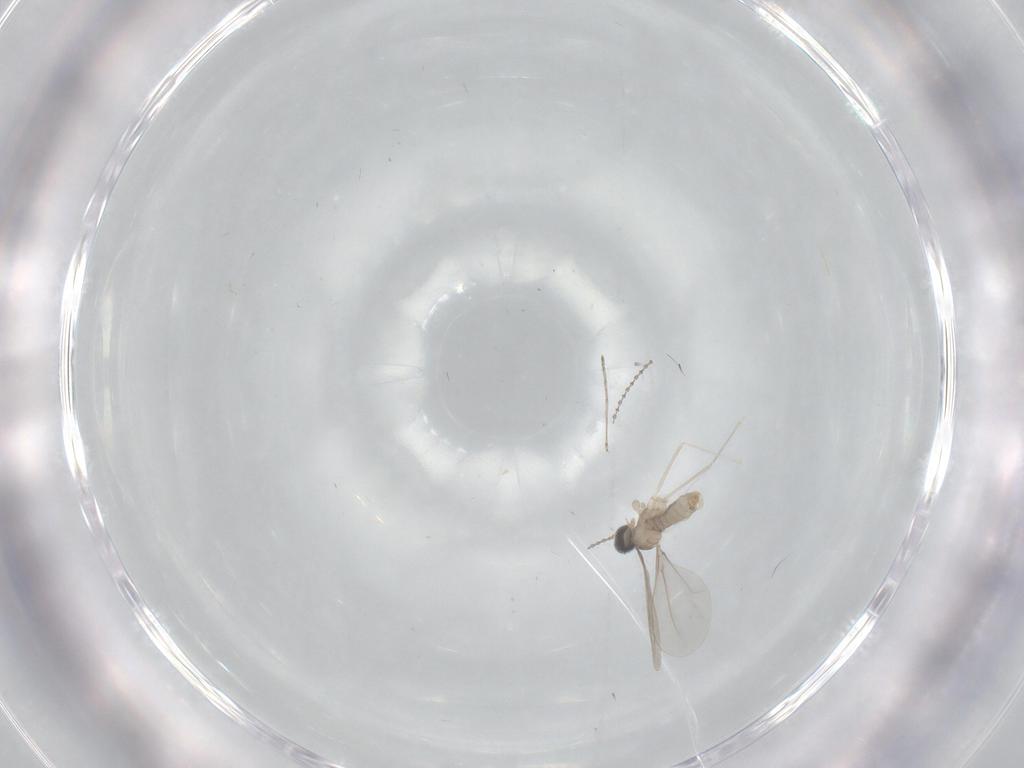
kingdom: Animalia
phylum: Arthropoda
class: Insecta
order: Diptera
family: Cecidomyiidae
